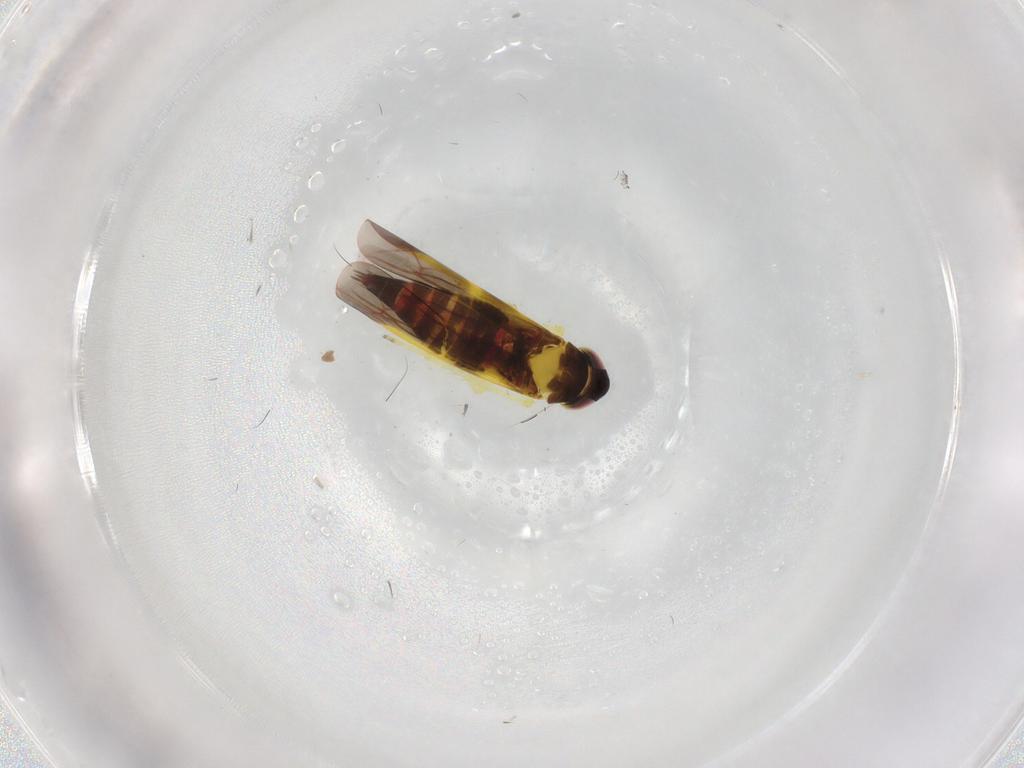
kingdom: Animalia
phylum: Arthropoda
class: Insecta
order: Hemiptera
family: Cicadellidae
